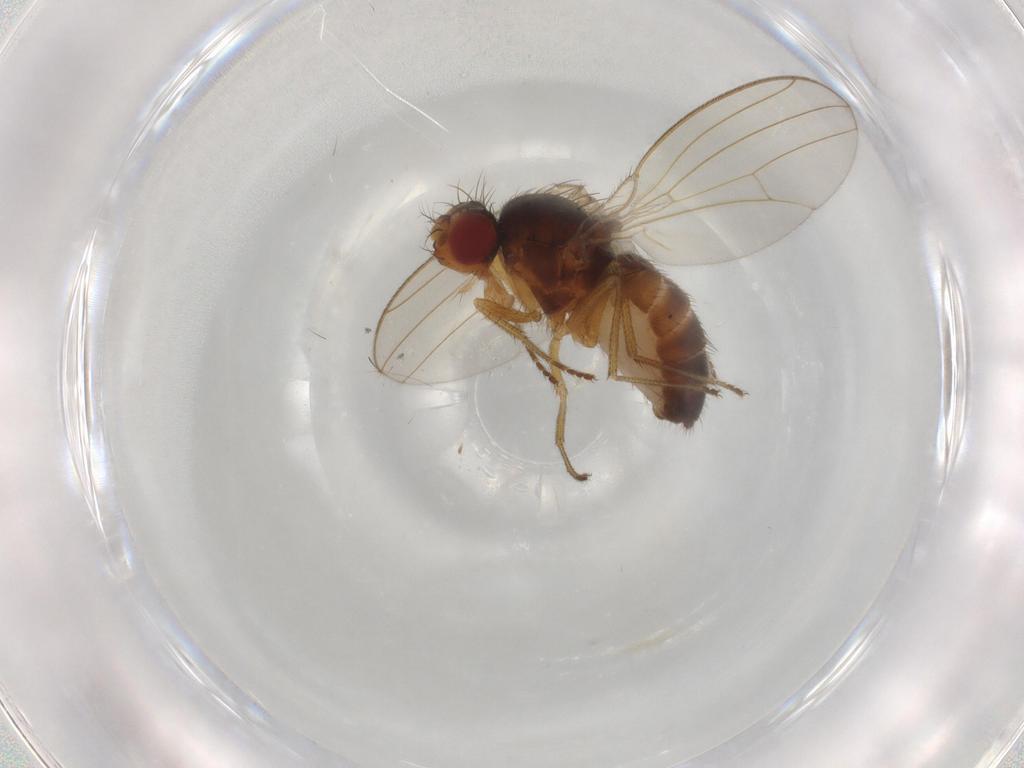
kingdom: Animalia
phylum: Arthropoda
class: Insecta
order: Diptera
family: Drosophilidae
